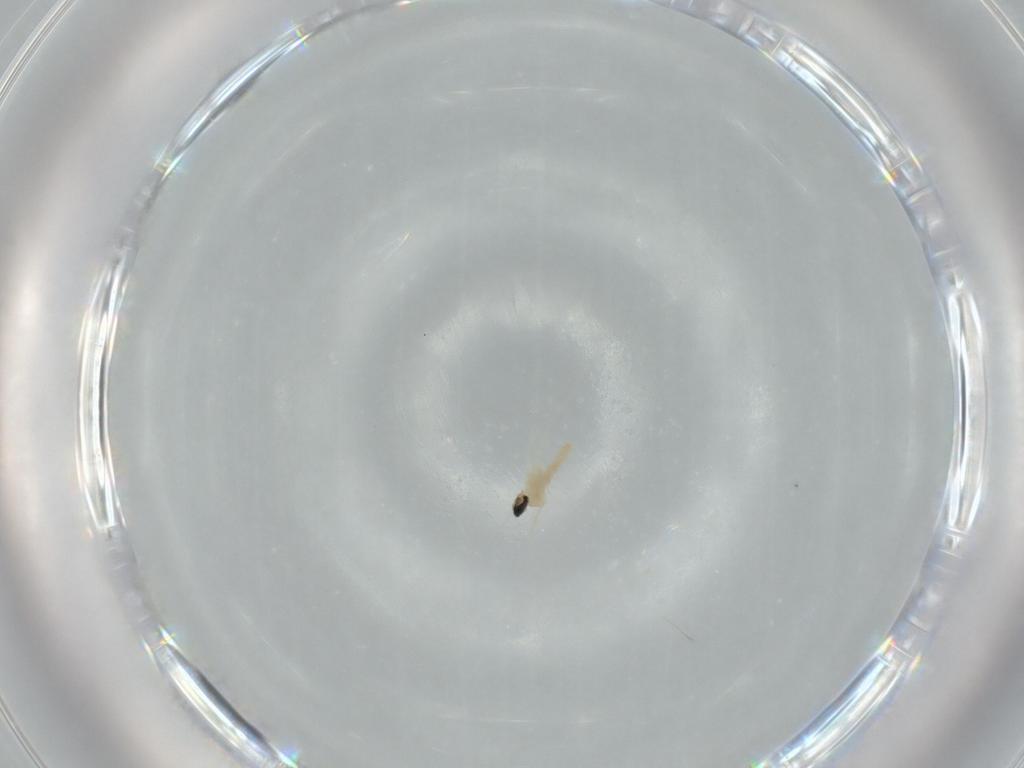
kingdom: Animalia
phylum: Arthropoda
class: Insecta
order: Diptera
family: Cecidomyiidae
